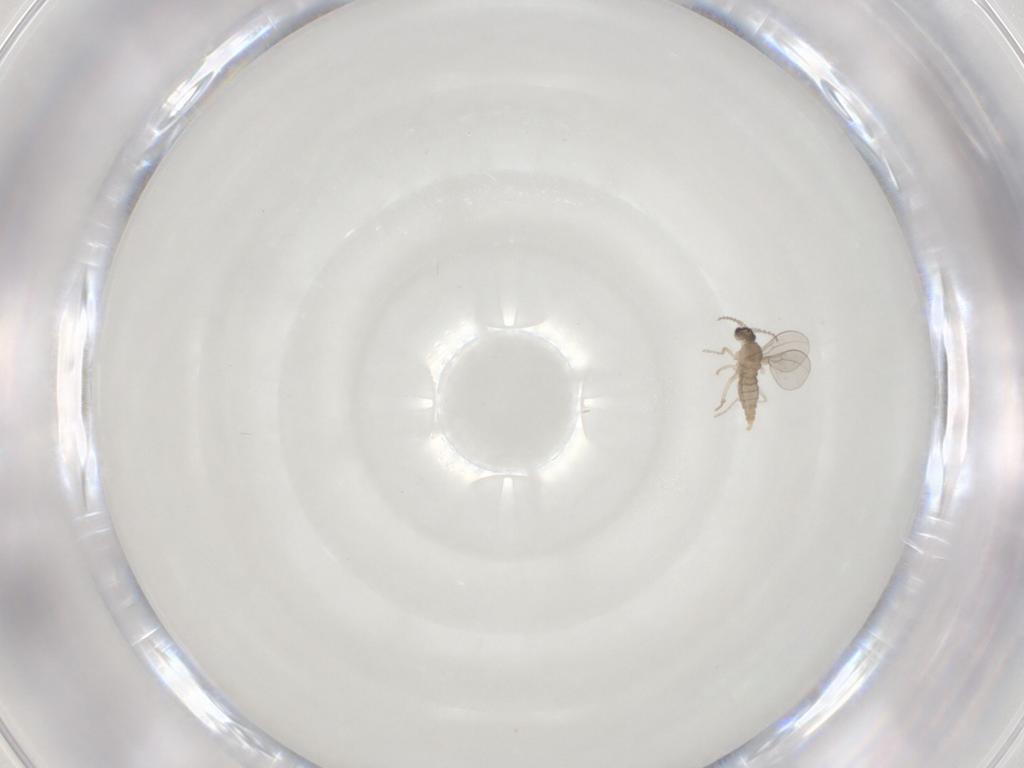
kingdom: Animalia
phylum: Arthropoda
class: Insecta
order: Diptera
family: Cecidomyiidae
